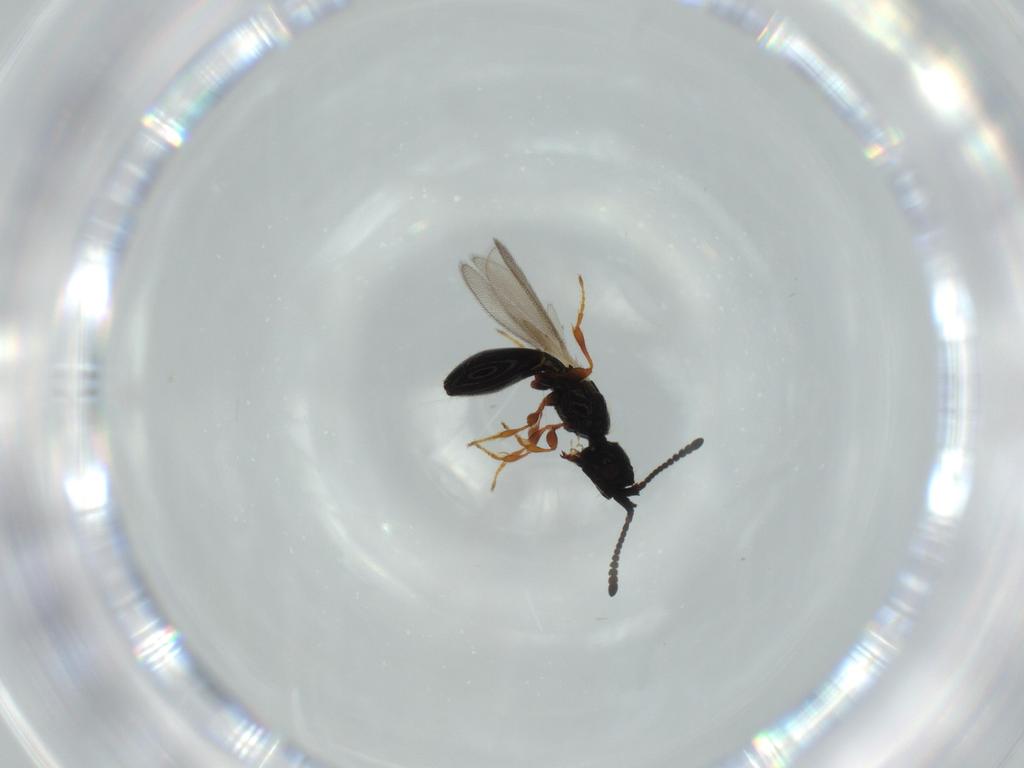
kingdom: Animalia
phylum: Arthropoda
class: Insecta
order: Hymenoptera
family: Diapriidae
